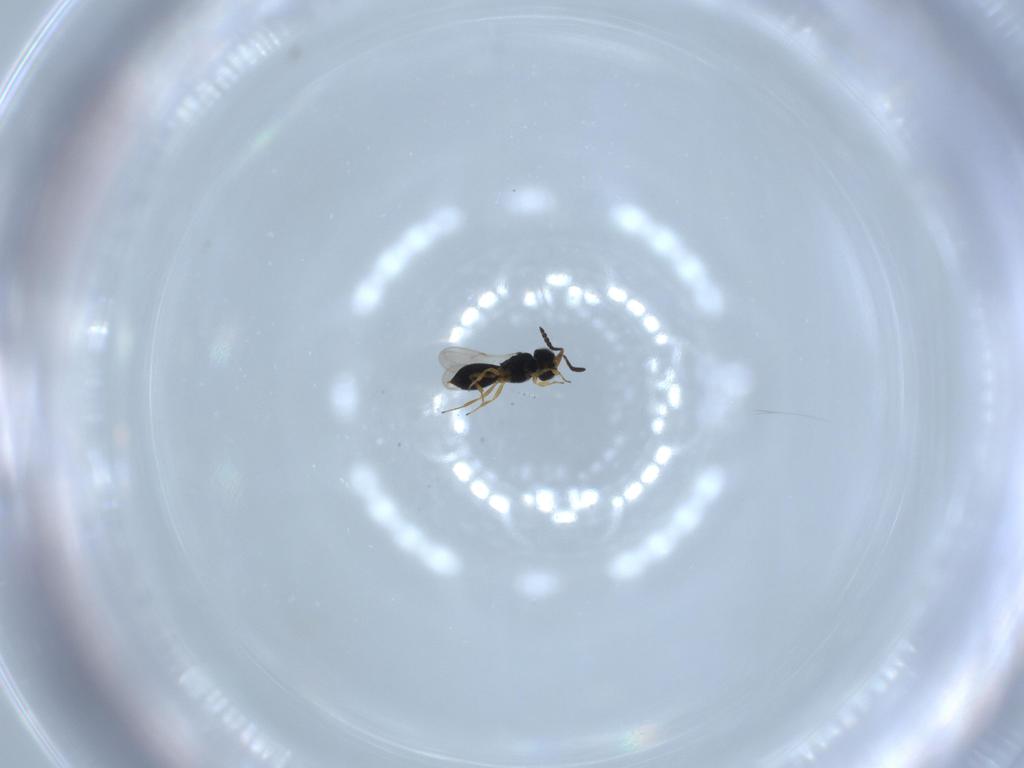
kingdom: Animalia
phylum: Arthropoda
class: Insecta
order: Hymenoptera
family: Scelionidae
